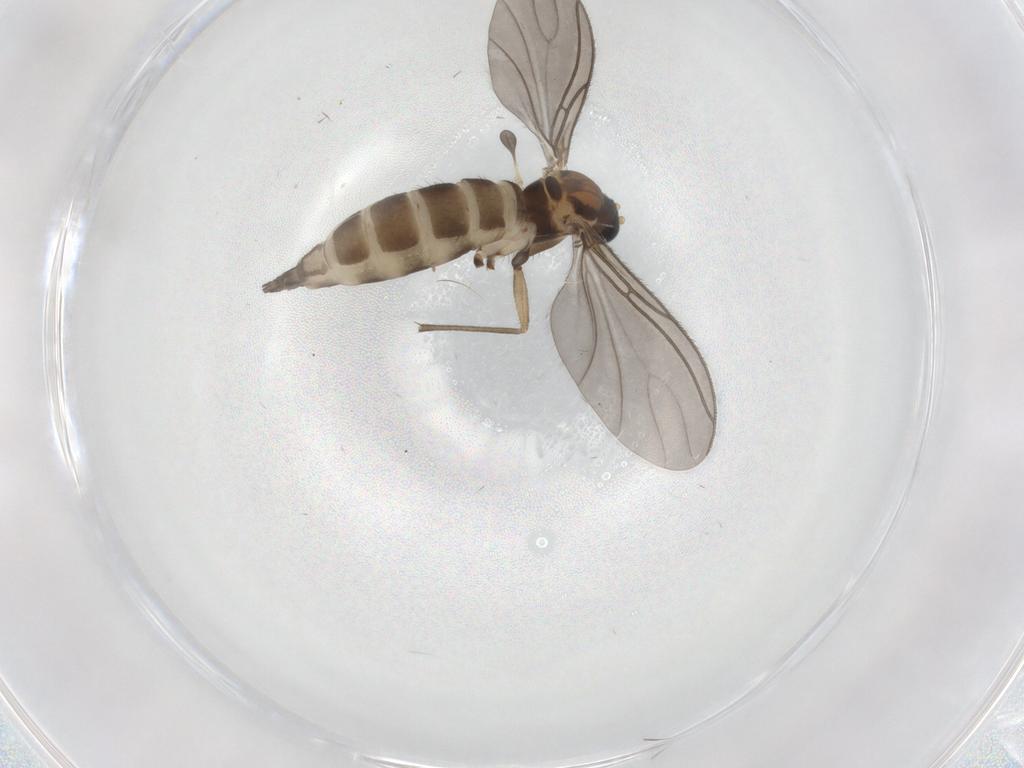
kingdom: Animalia
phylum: Arthropoda
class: Insecta
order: Diptera
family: Sciaridae
